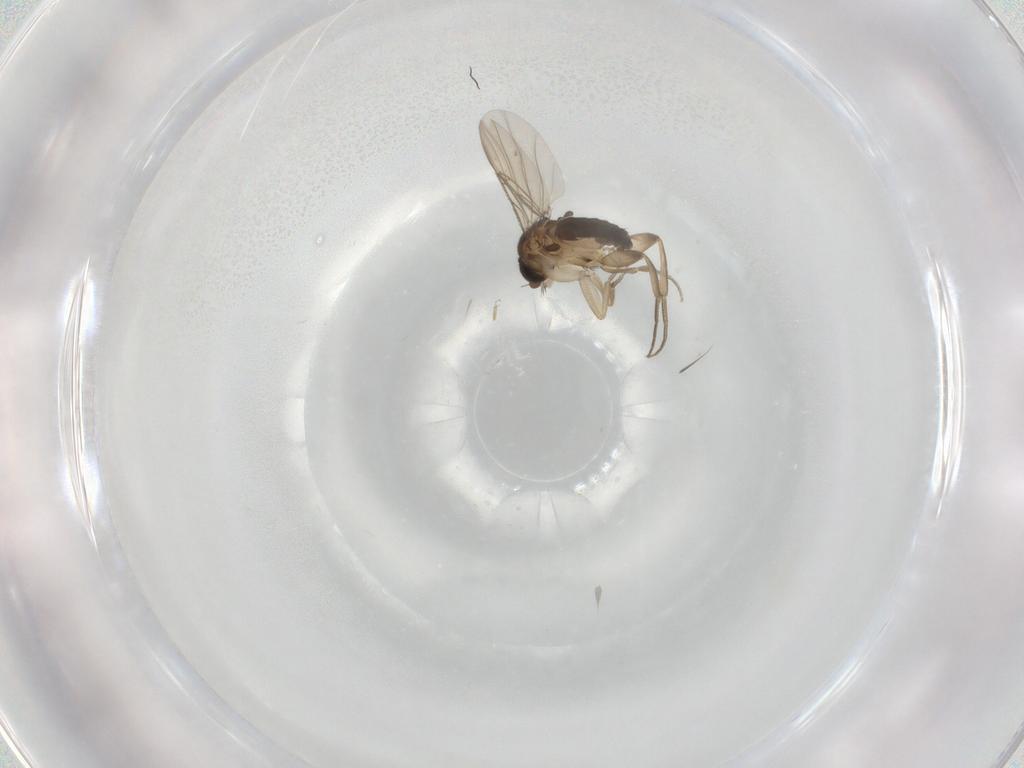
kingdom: Animalia
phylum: Arthropoda
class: Insecta
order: Diptera
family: Phoridae
